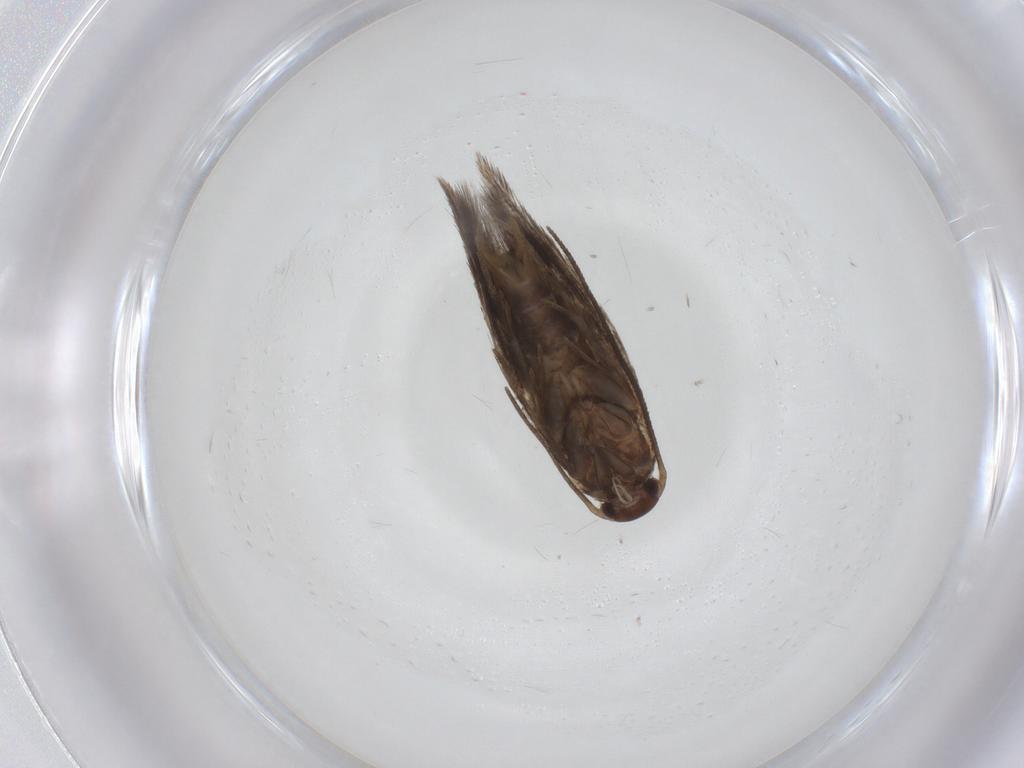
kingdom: Animalia
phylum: Arthropoda
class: Insecta
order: Lepidoptera
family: Elachistidae
